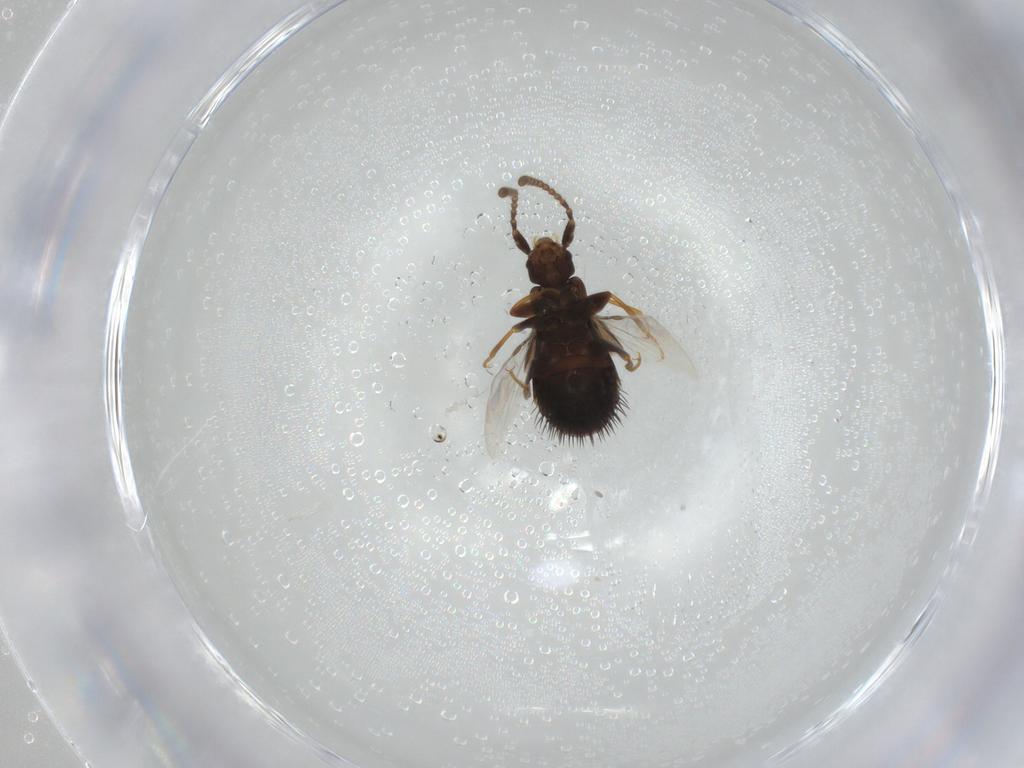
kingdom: Animalia
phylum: Arthropoda
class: Insecta
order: Coleoptera
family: Staphylinidae
